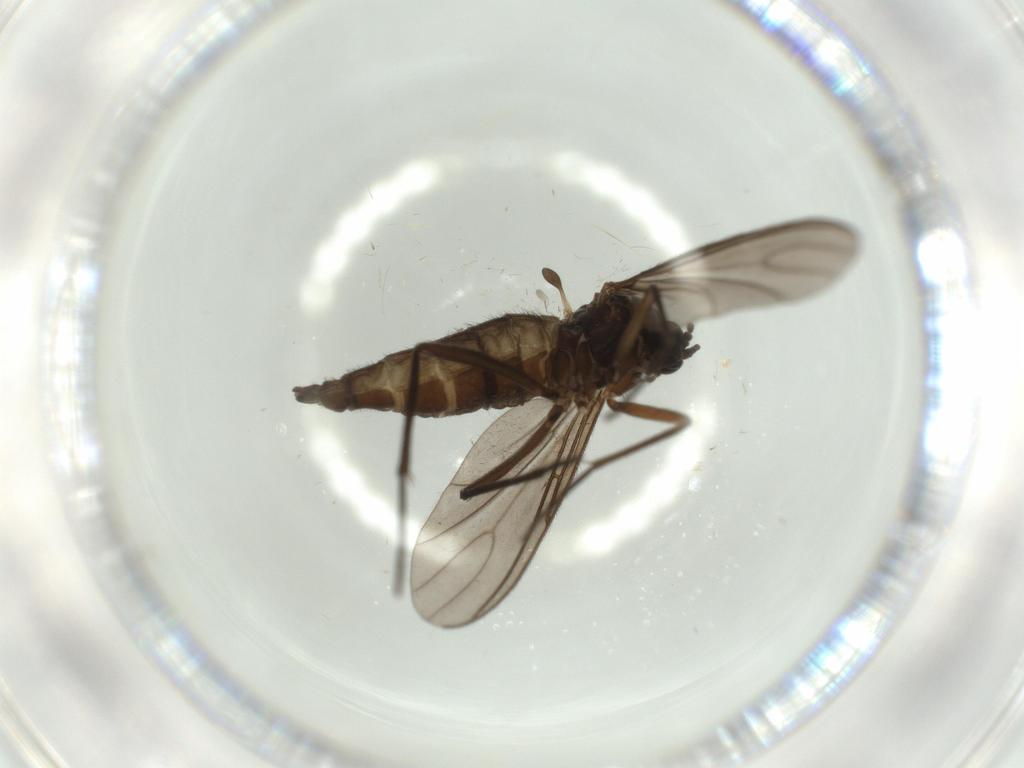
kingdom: Animalia
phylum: Arthropoda
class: Insecta
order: Diptera
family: Sciaridae
